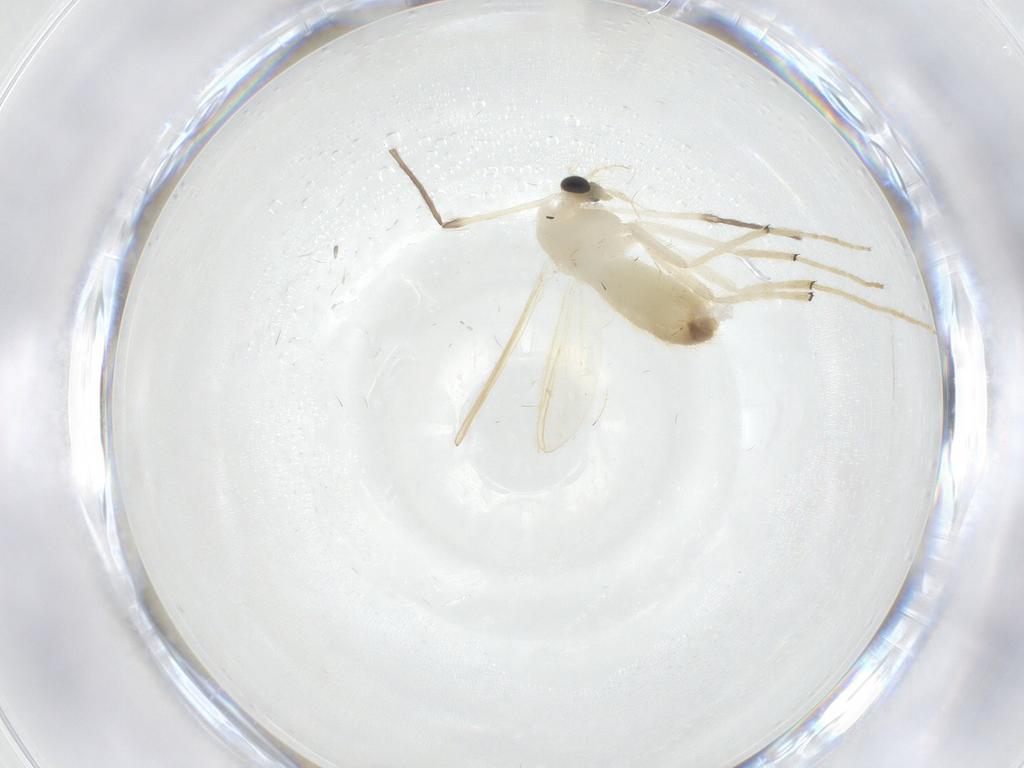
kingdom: Animalia
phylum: Arthropoda
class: Insecta
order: Diptera
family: Chironomidae
